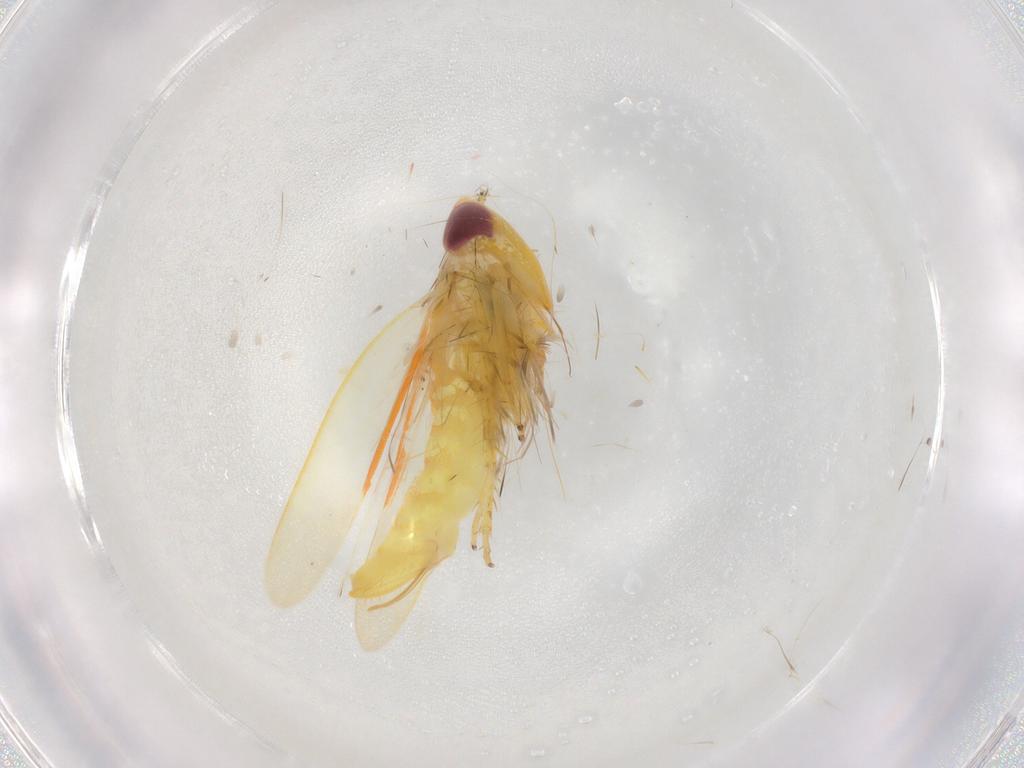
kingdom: Animalia
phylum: Arthropoda
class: Insecta
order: Hemiptera
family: Cicadellidae
